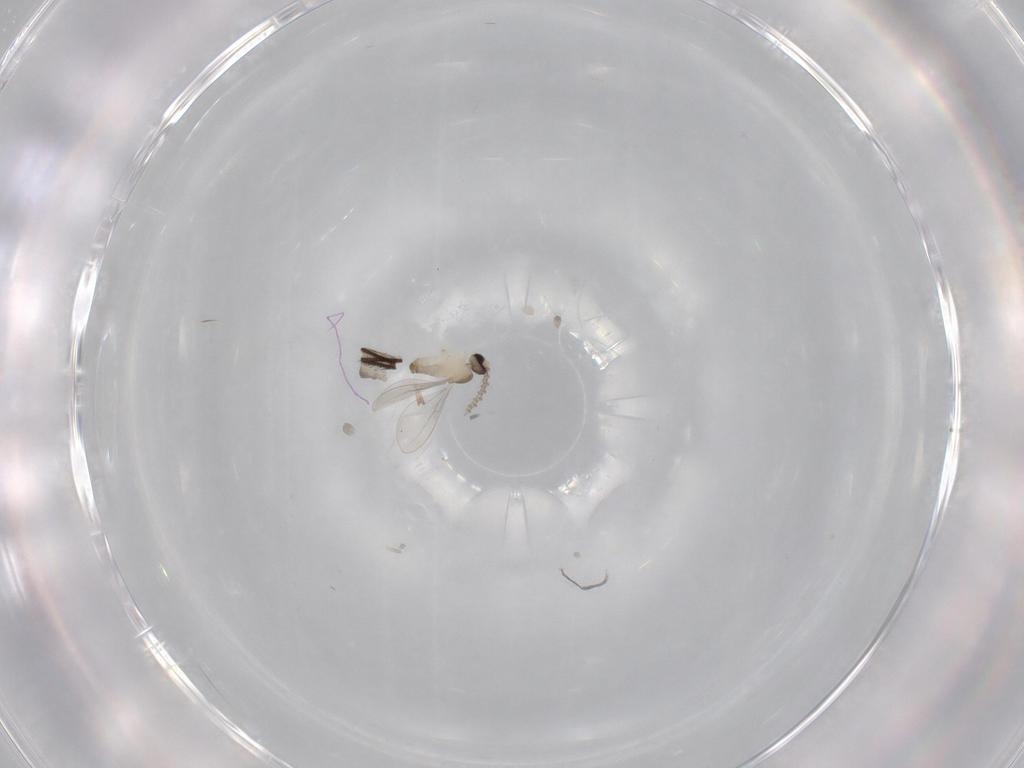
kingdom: Animalia
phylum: Arthropoda
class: Insecta
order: Diptera
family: Cecidomyiidae
